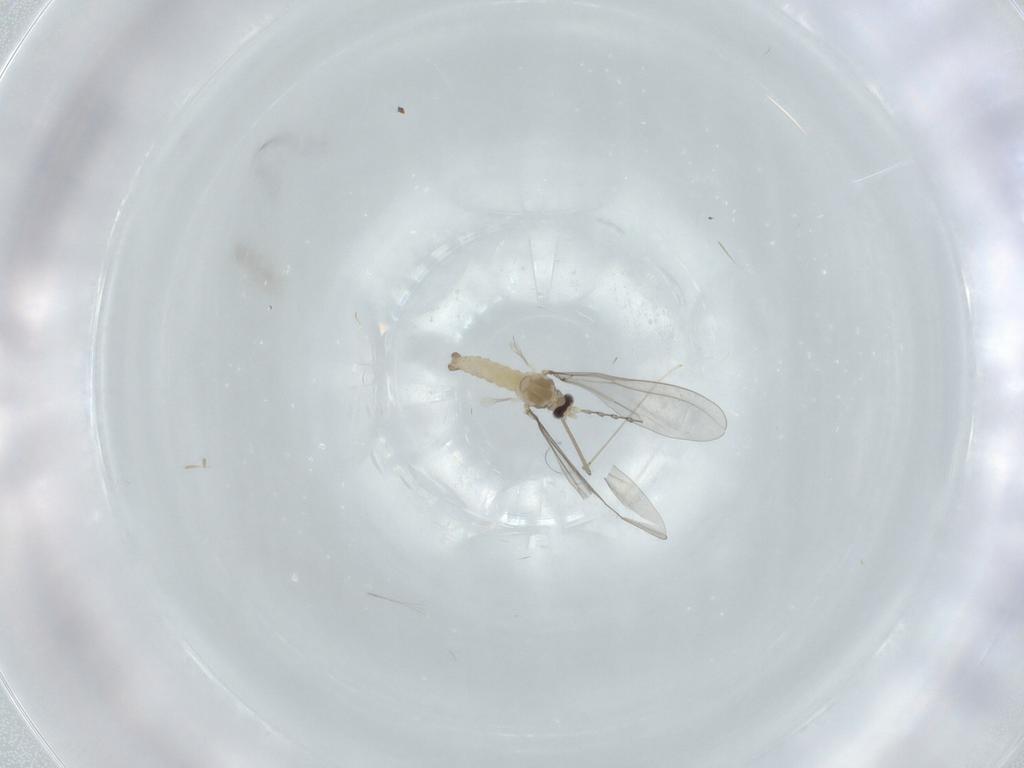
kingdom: Animalia
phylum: Arthropoda
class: Insecta
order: Diptera
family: Cecidomyiidae
